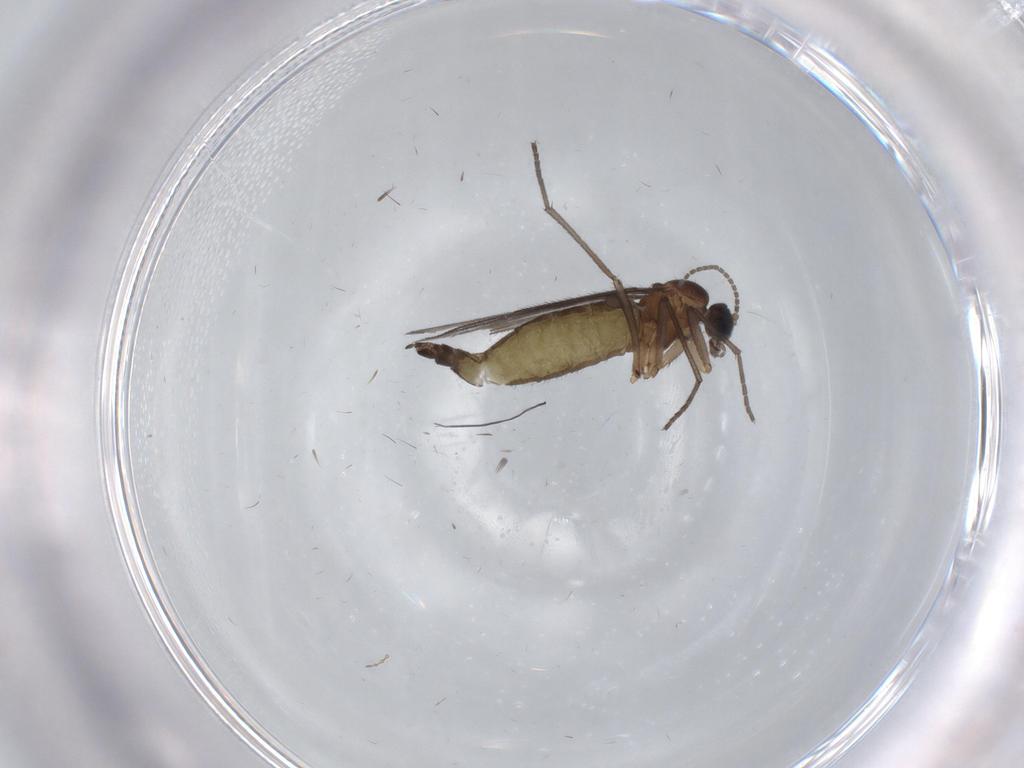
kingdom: Animalia
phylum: Arthropoda
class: Insecta
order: Diptera
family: Sciaridae
